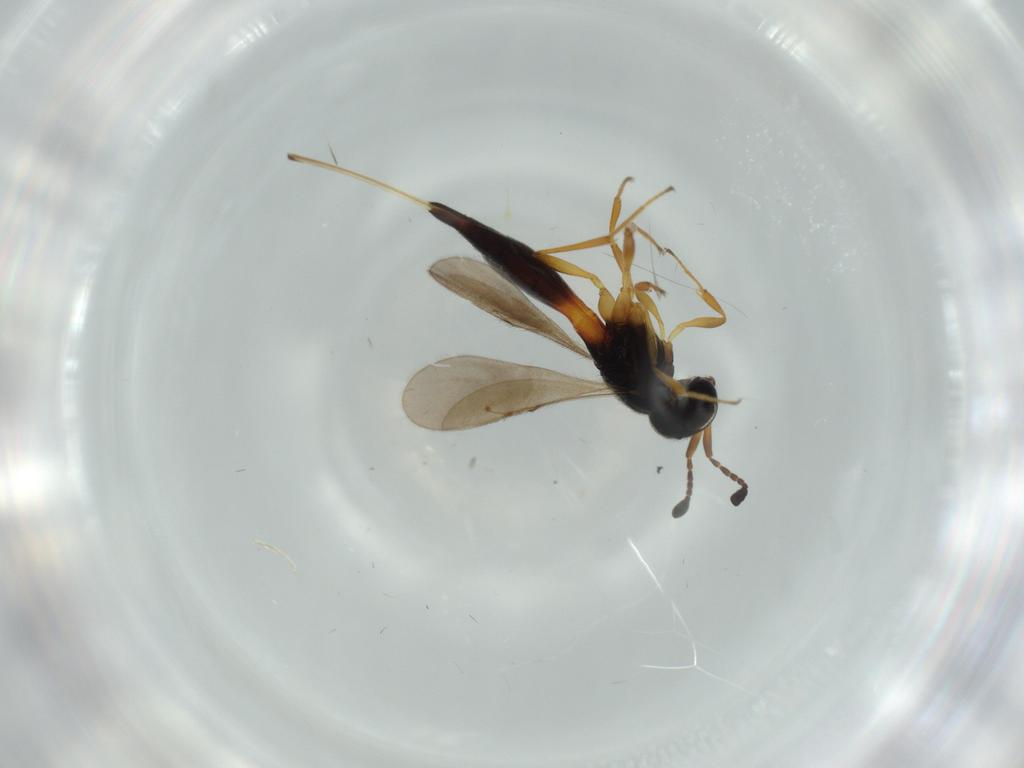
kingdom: Animalia
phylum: Arthropoda
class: Insecta
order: Hymenoptera
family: Scelionidae
